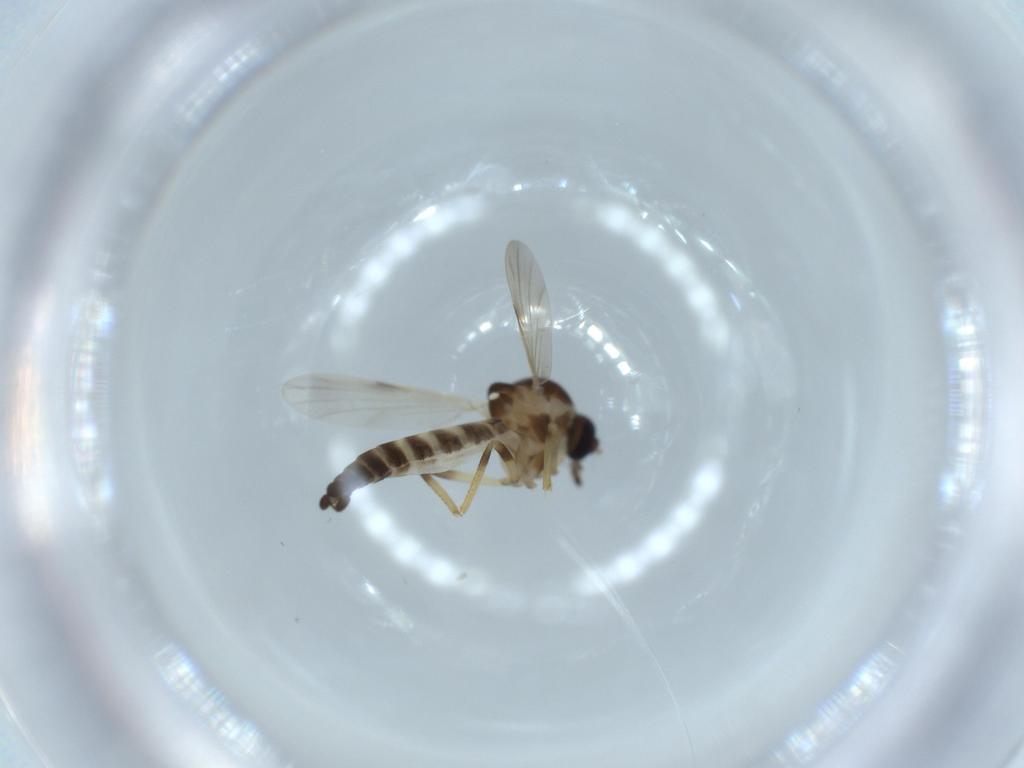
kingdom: Animalia
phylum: Arthropoda
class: Insecta
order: Diptera
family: Ceratopogonidae
